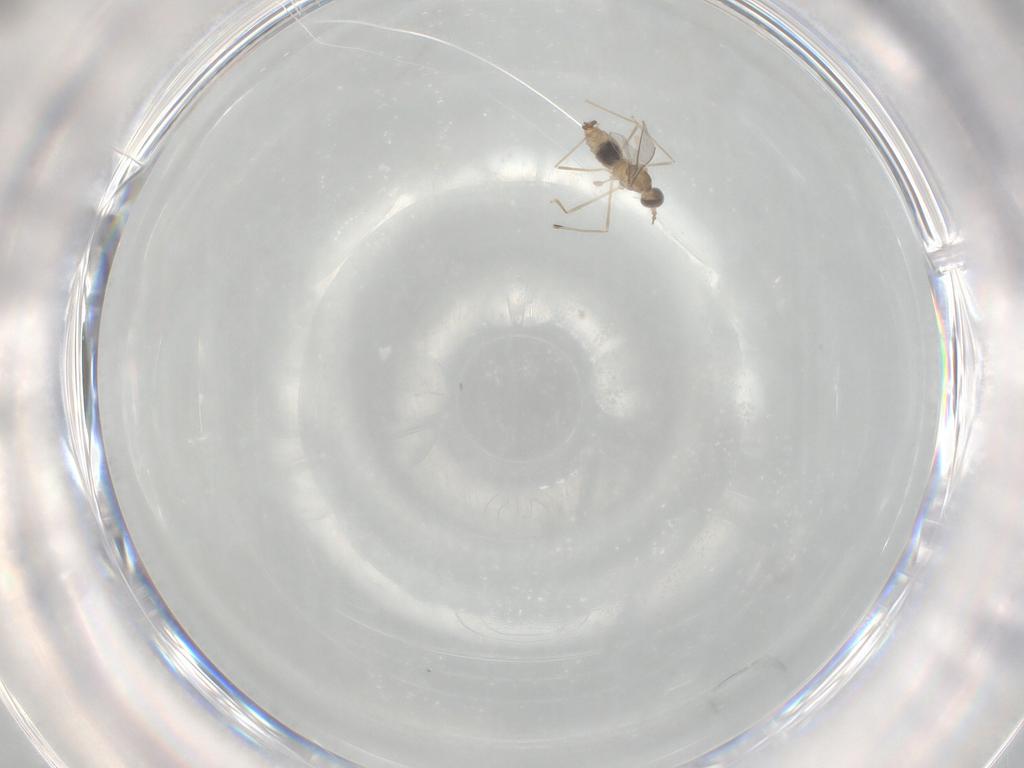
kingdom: Animalia
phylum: Arthropoda
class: Insecta
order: Diptera
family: Cecidomyiidae
